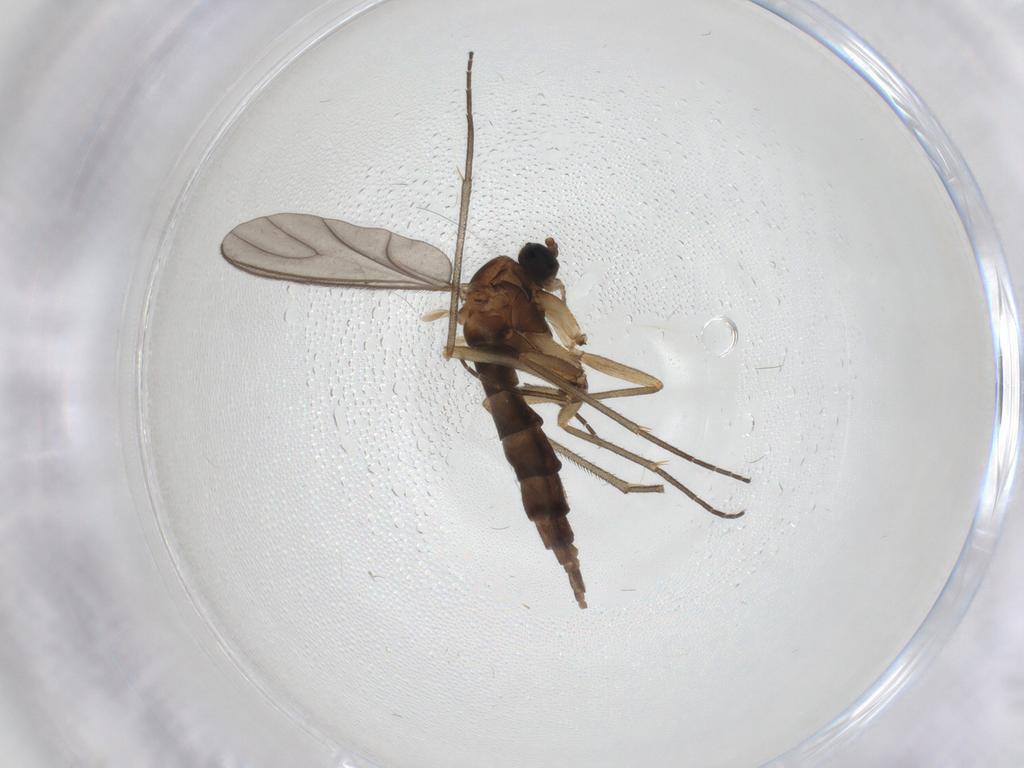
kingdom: Animalia
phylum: Arthropoda
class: Insecta
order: Diptera
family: Sciaridae
